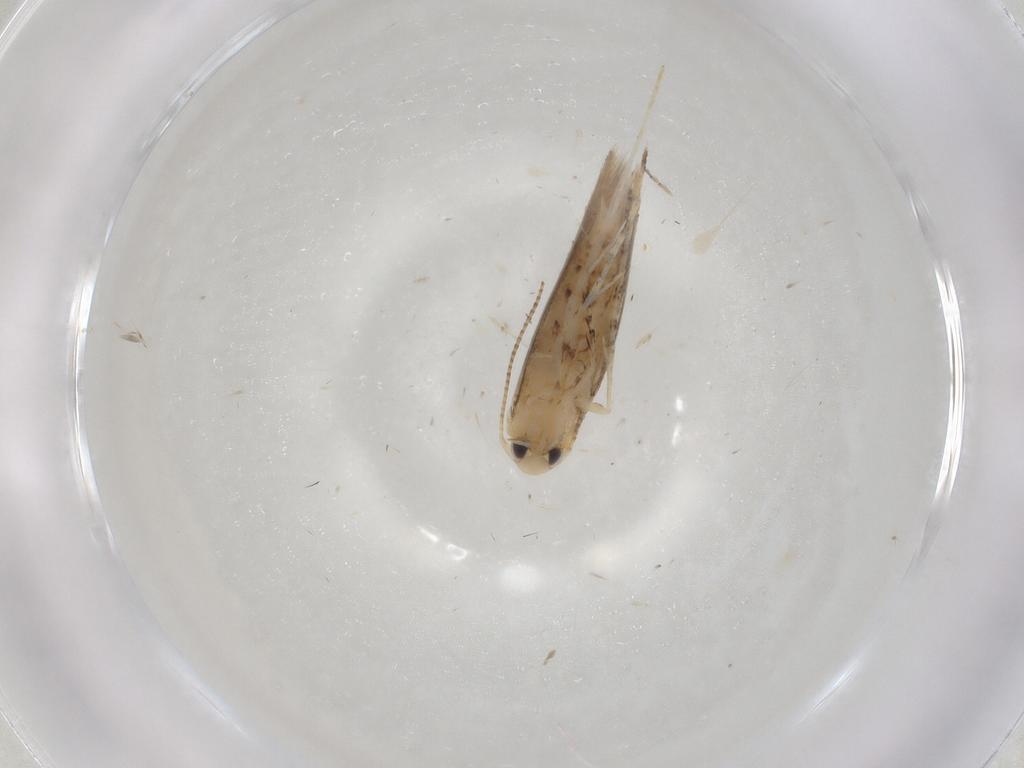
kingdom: Animalia
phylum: Arthropoda
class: Insecta
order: Lepidoptera
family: Gracillariidae
